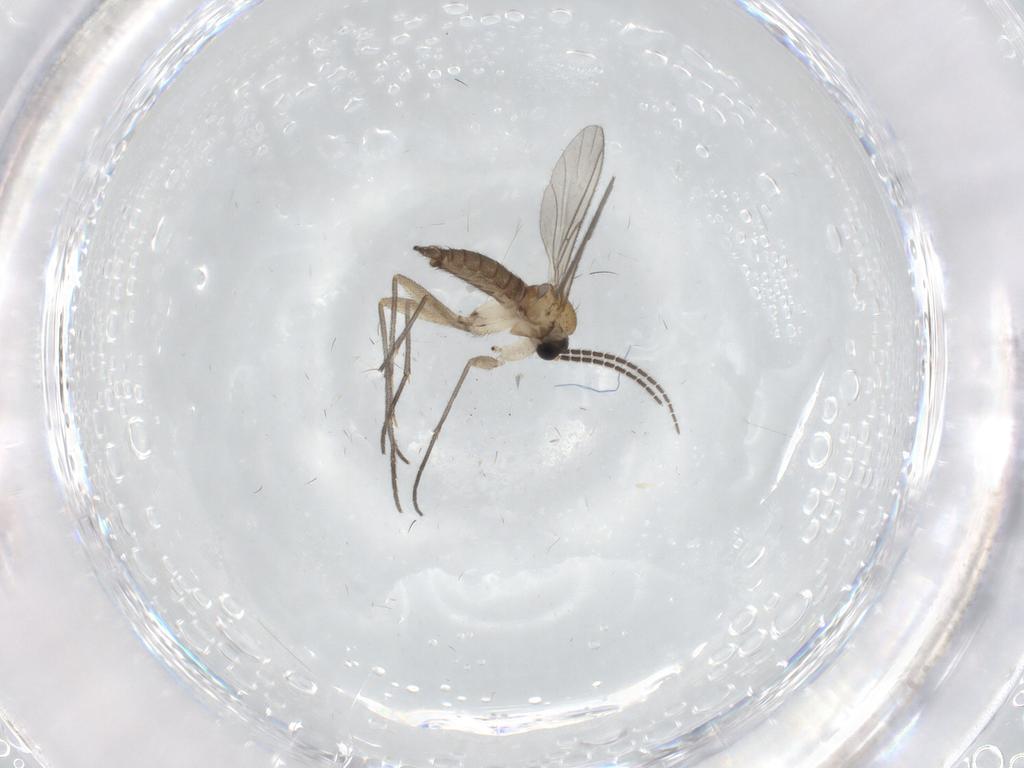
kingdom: Animalia
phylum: Arthropoda
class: Insecta
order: Diptera
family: Sciaridae
